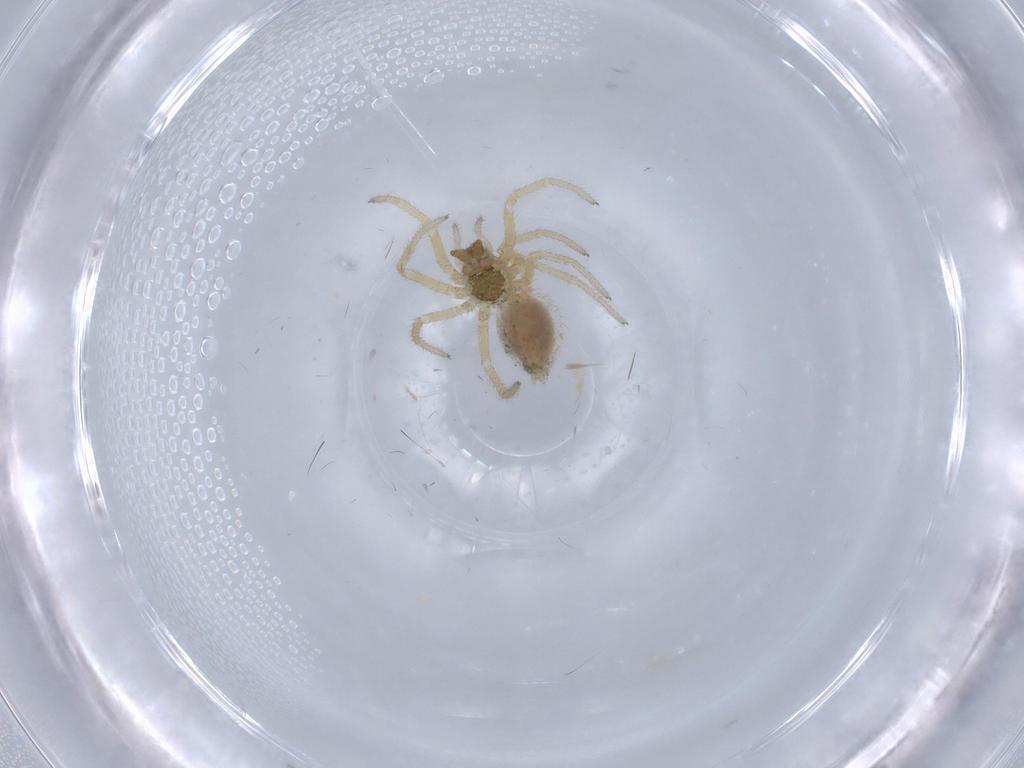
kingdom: Animalia
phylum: Arthropoda
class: Arachnida
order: Araneae
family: Linyphiidae
